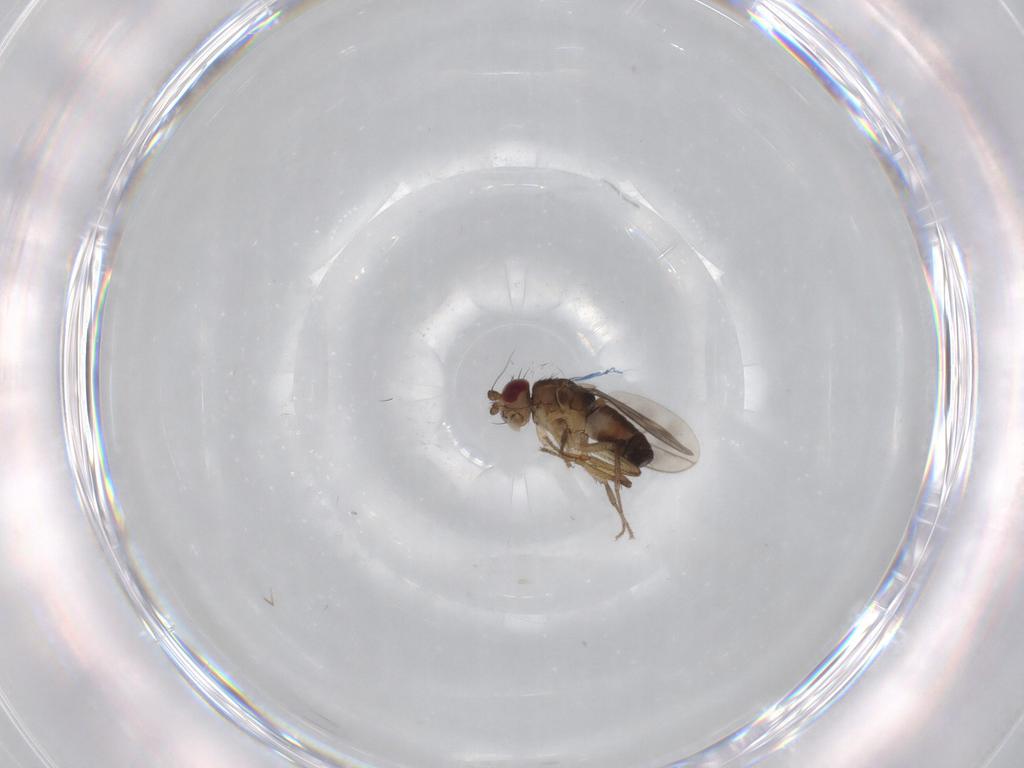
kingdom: Animalia
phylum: Arthropoda
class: Insecta
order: Diptera
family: Sphaeroceridae
